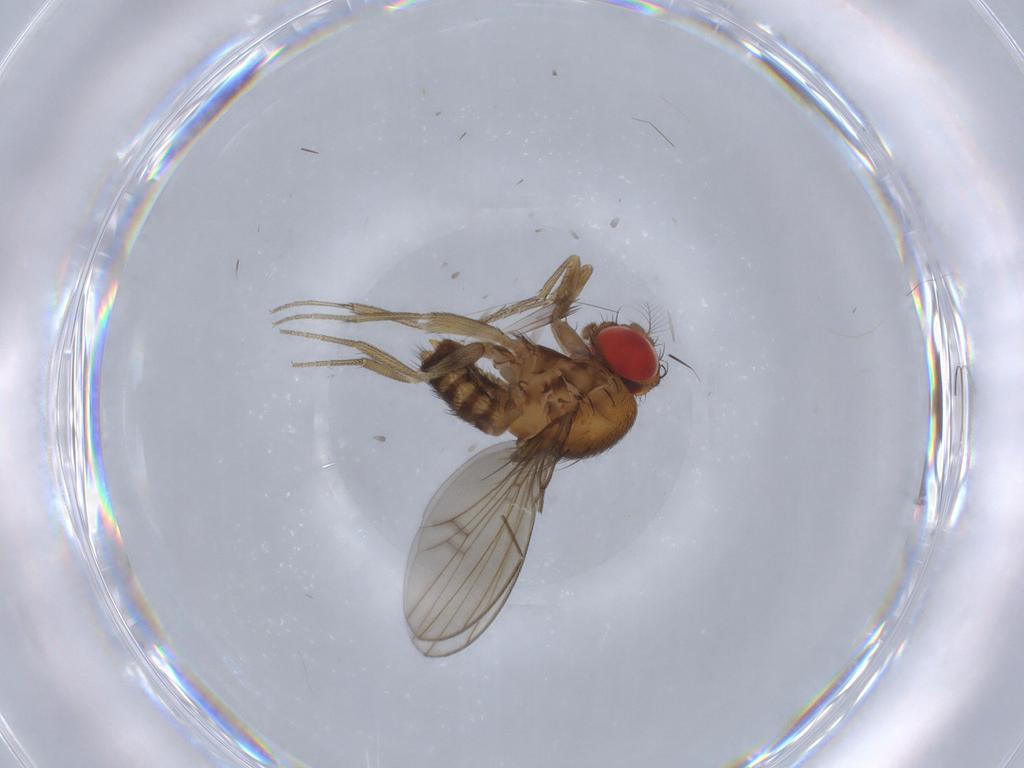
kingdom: Animalia
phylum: Arthropoda
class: Insecta
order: Diptera
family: Drosophilidae
